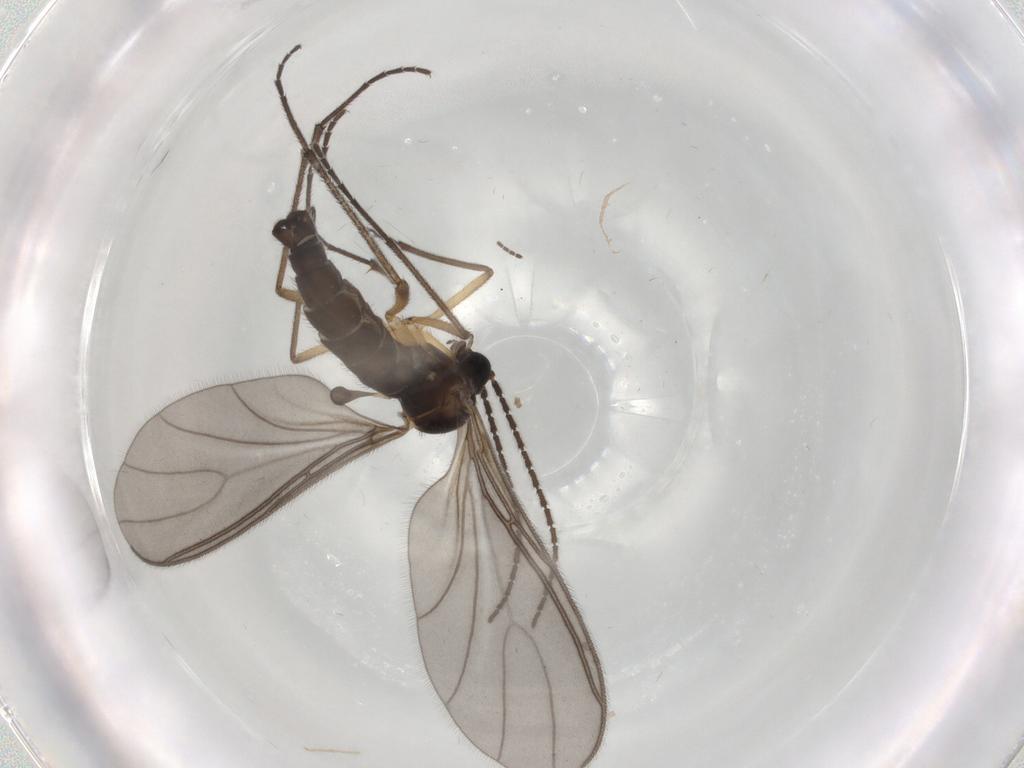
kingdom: Animalia
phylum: Arthropoda
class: Insecta
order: Diptera
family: Sciaridae
